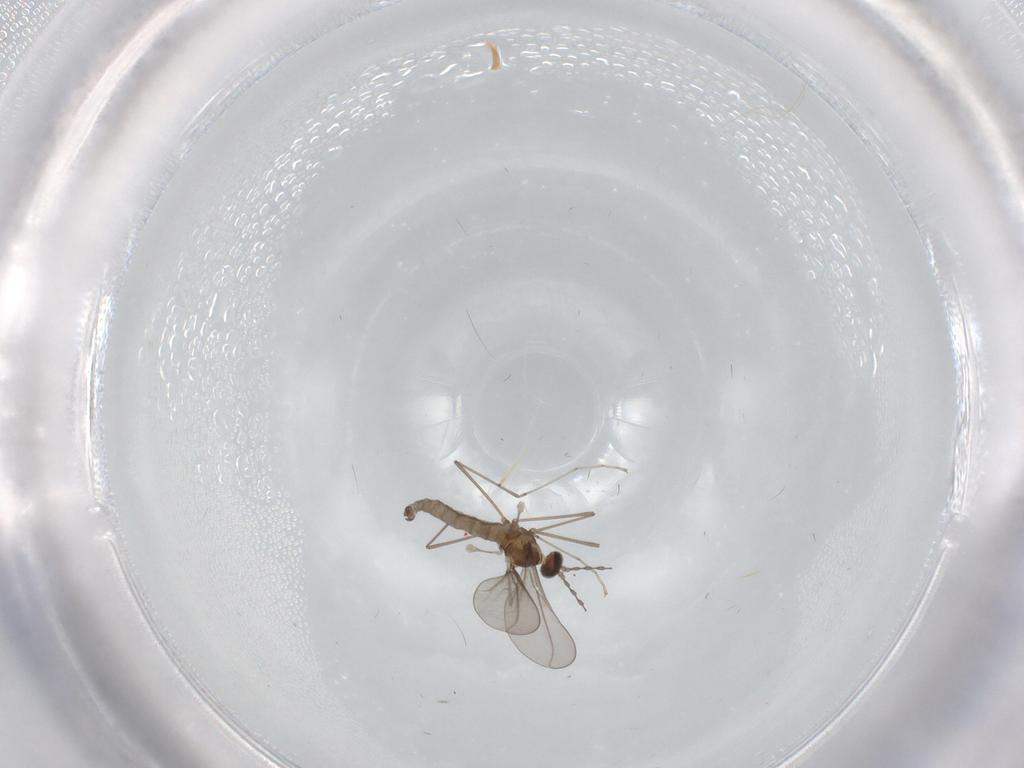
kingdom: Animalia
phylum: Arthropoda
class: Insecta
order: Diptera
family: Cecidomyiidae
